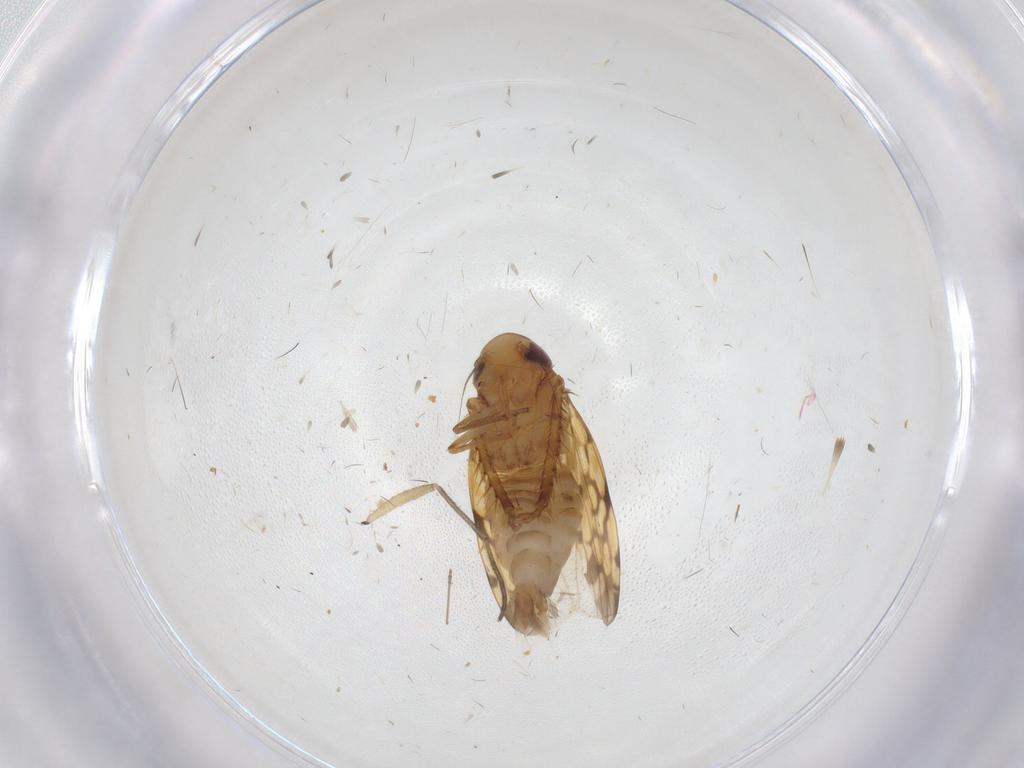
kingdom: Animalia
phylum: Arthropoda
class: Insecta
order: Hemiptera
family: Cicadellidae
